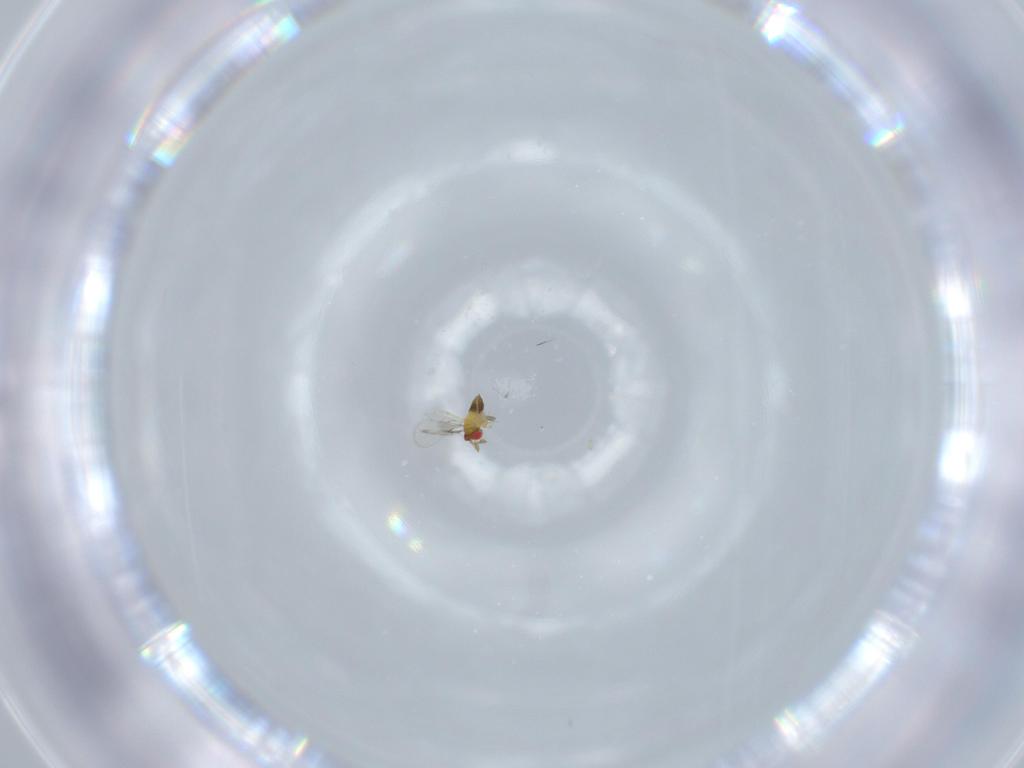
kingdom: Animalia
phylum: Arthropoda
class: Insecta
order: Hymenoptera
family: Trichogrammatidae
